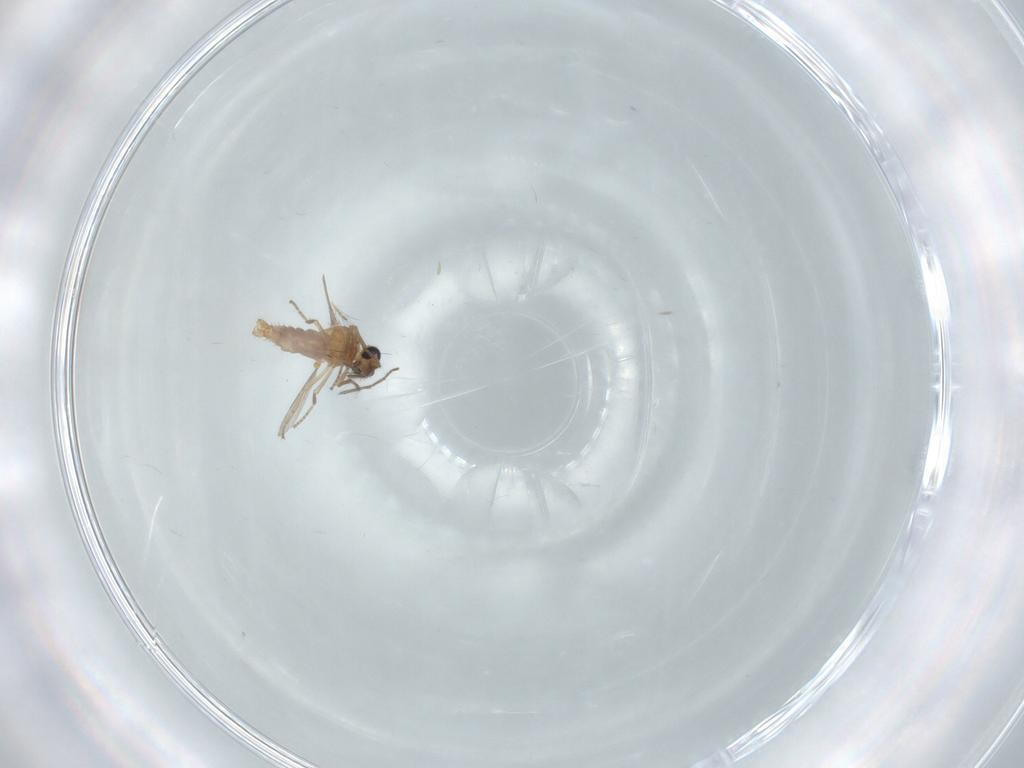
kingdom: Animalia
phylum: Arthropoda
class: Insecta
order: Diptera
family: Ceratopogonidae
